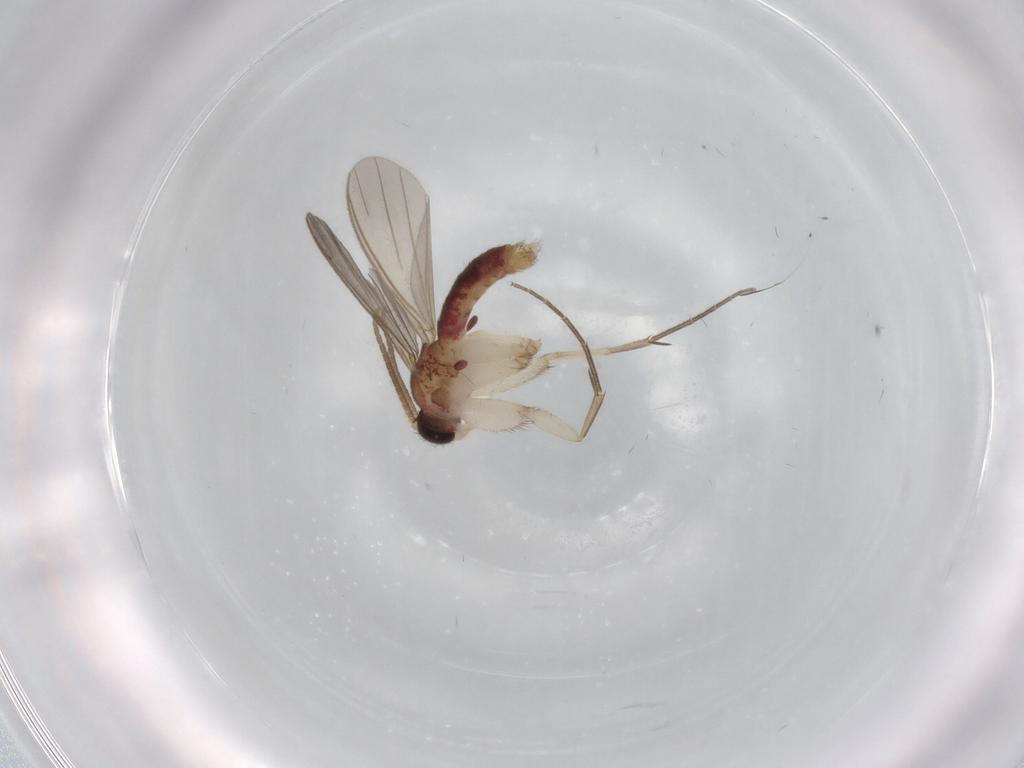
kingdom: Animalia
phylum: Arthropoda
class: Insecta
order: Diptera
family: Mycetophilidae
